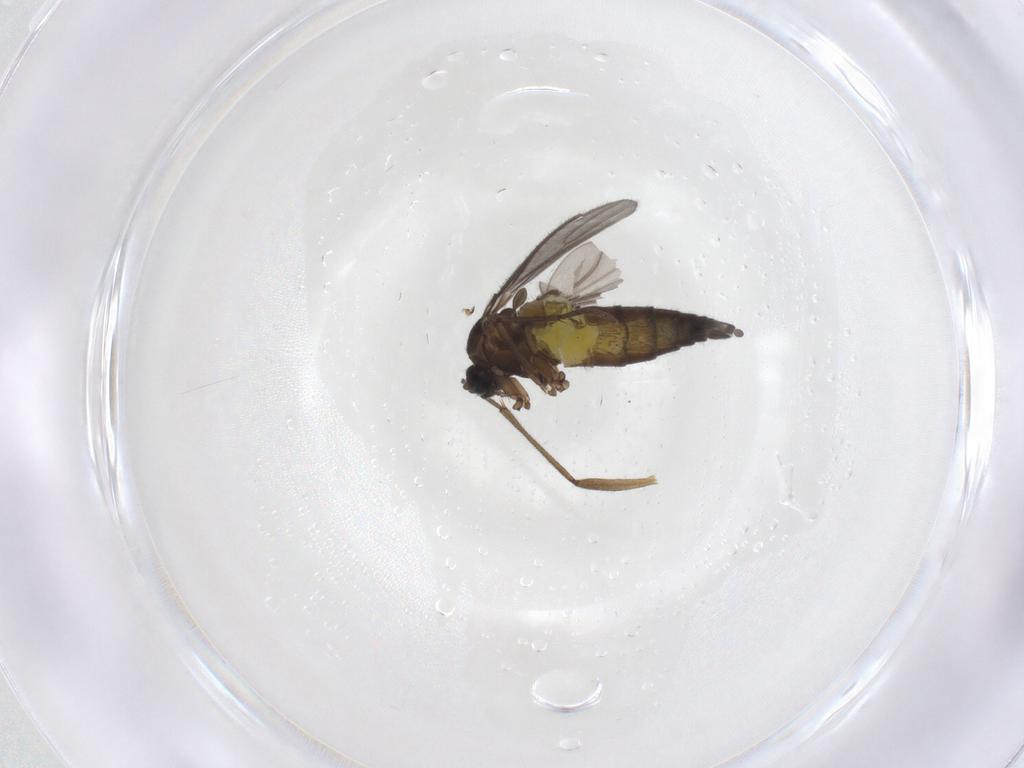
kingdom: Animalia
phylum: Arthropoda
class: Insecta
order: Diptera
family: Sciaridae
